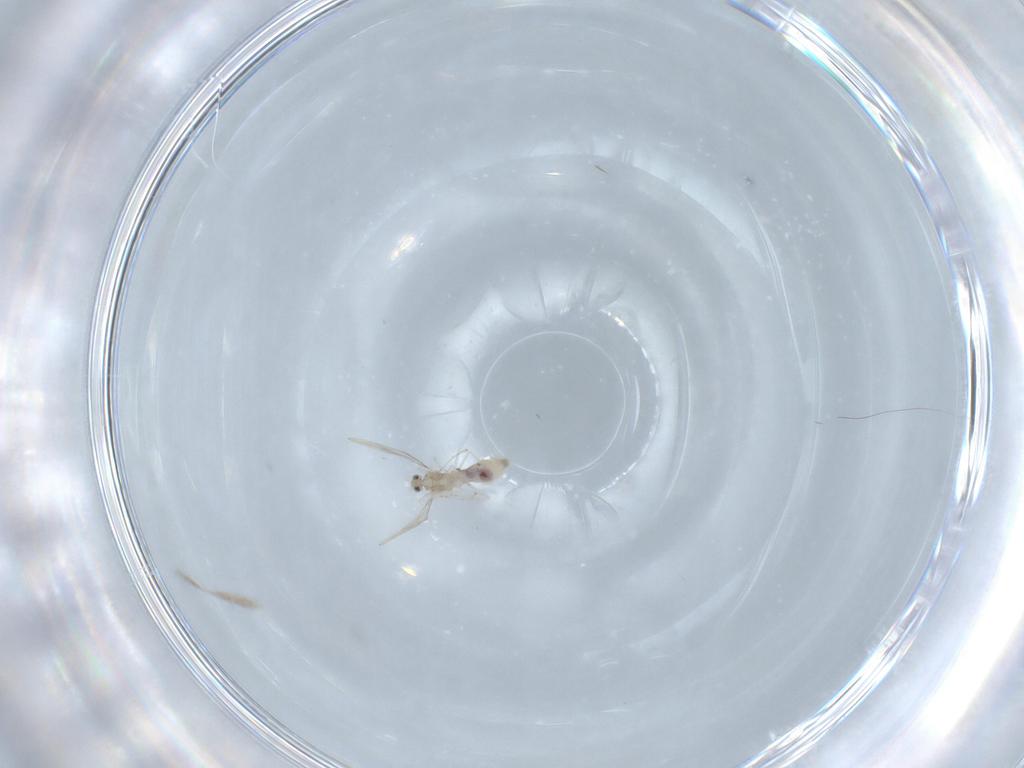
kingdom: Animalia
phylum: Arthropoda
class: Insecta
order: Diptera
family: Cecidomyiidae
